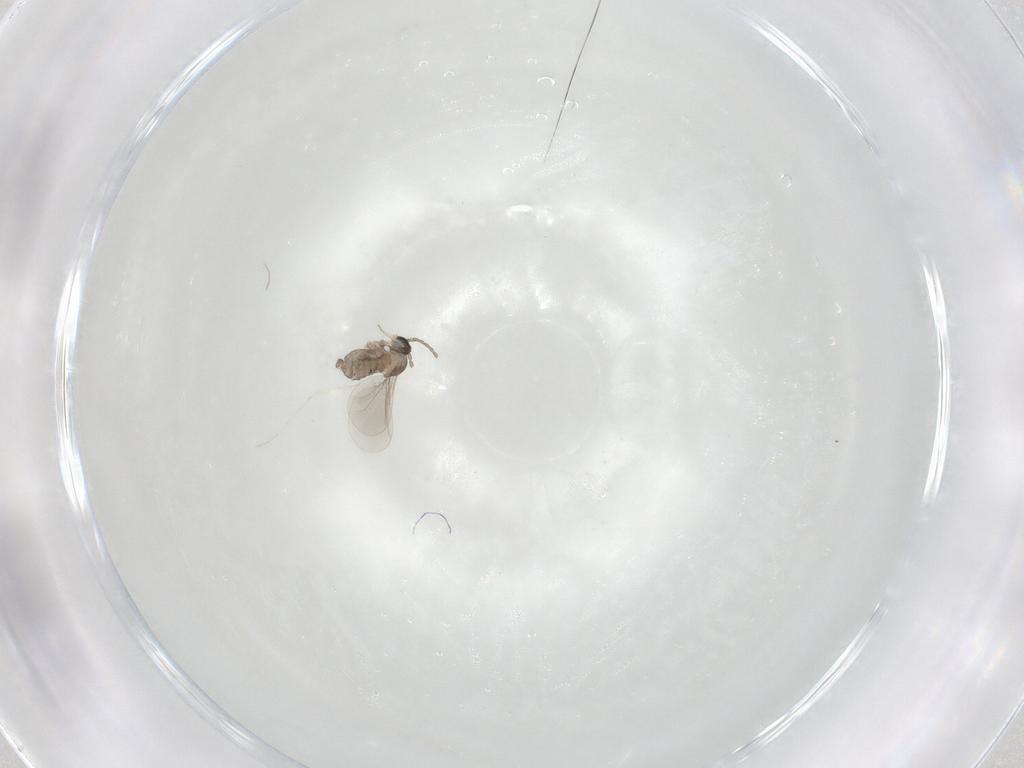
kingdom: Animalia
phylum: Arthropoda
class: Insecta
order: Diptera
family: Cecidomyiidae
